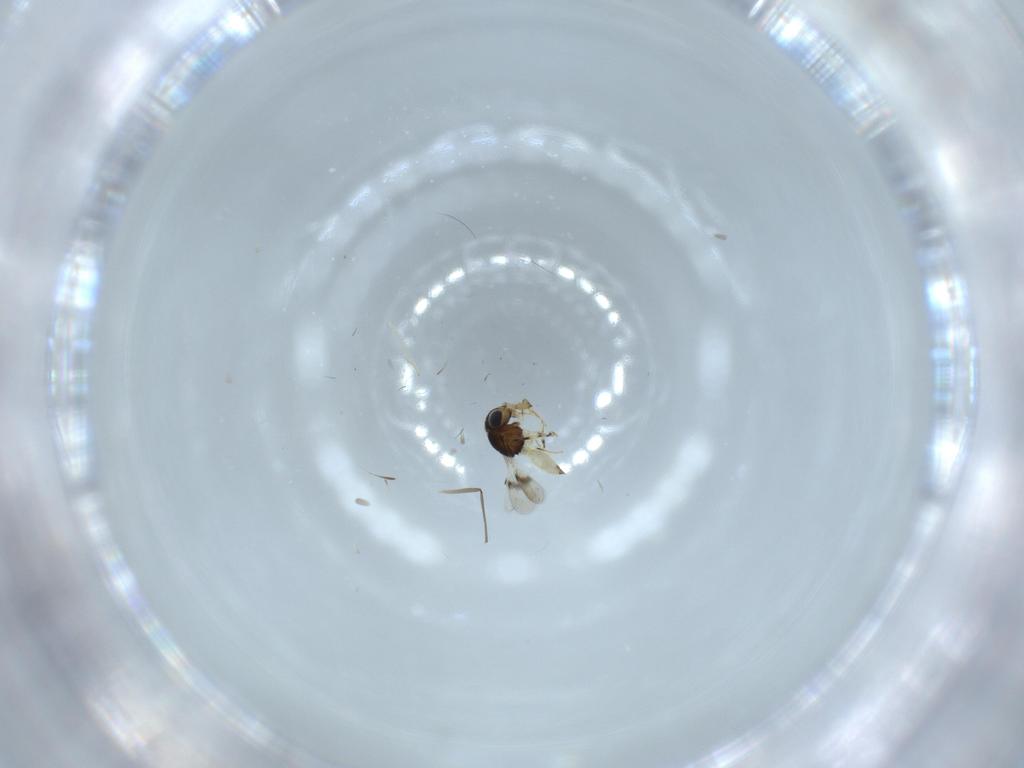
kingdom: Animalia
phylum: Arthropoda
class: Insecta
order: Hymenoptera
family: Scelionidae
